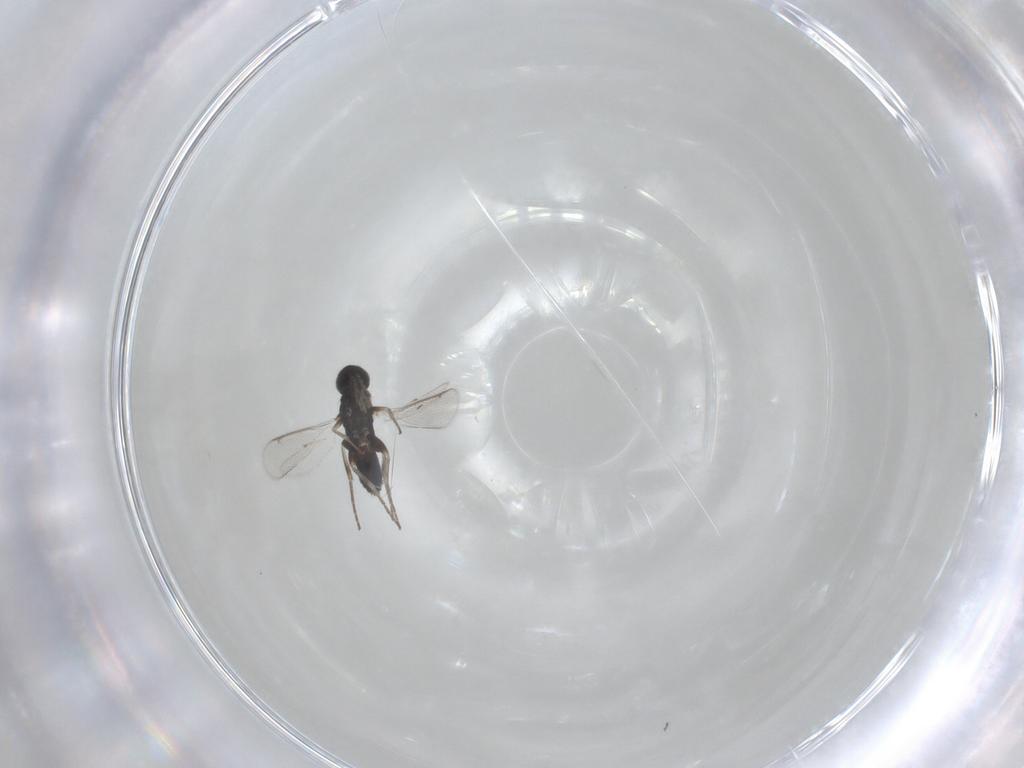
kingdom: Animalia
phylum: Arthropoda
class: Insecta
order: Hymenoptera
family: Eulophidae
